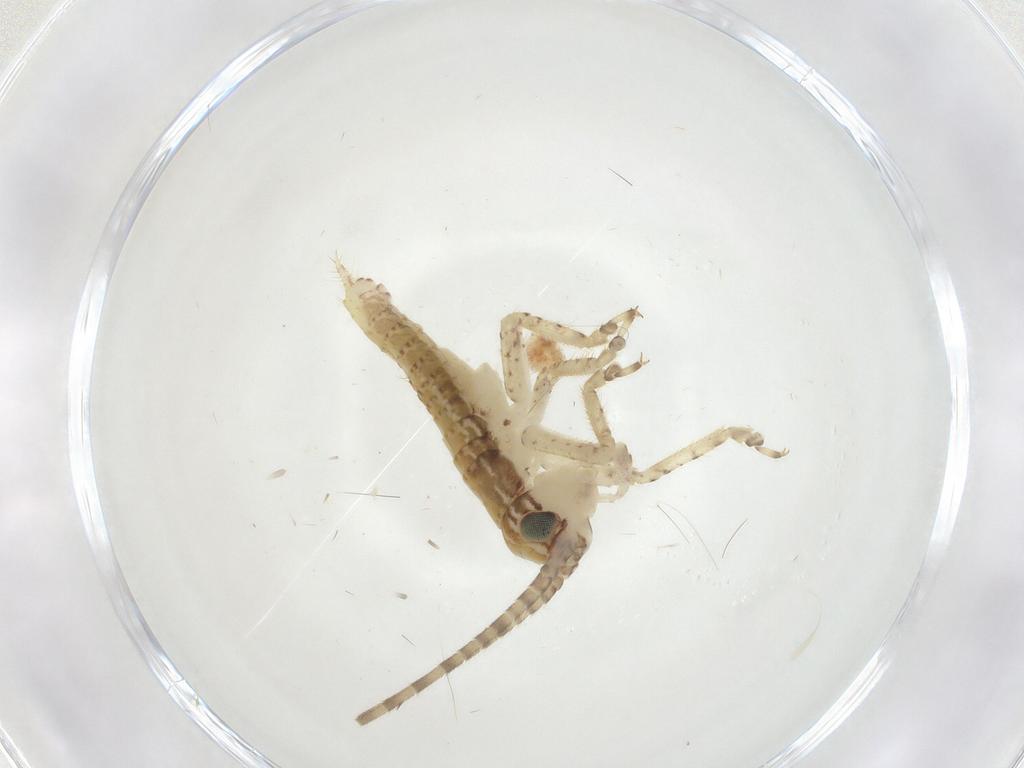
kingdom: Animalia
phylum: Arthropoda
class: Insecta
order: Orthoptera
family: Gryllidae
